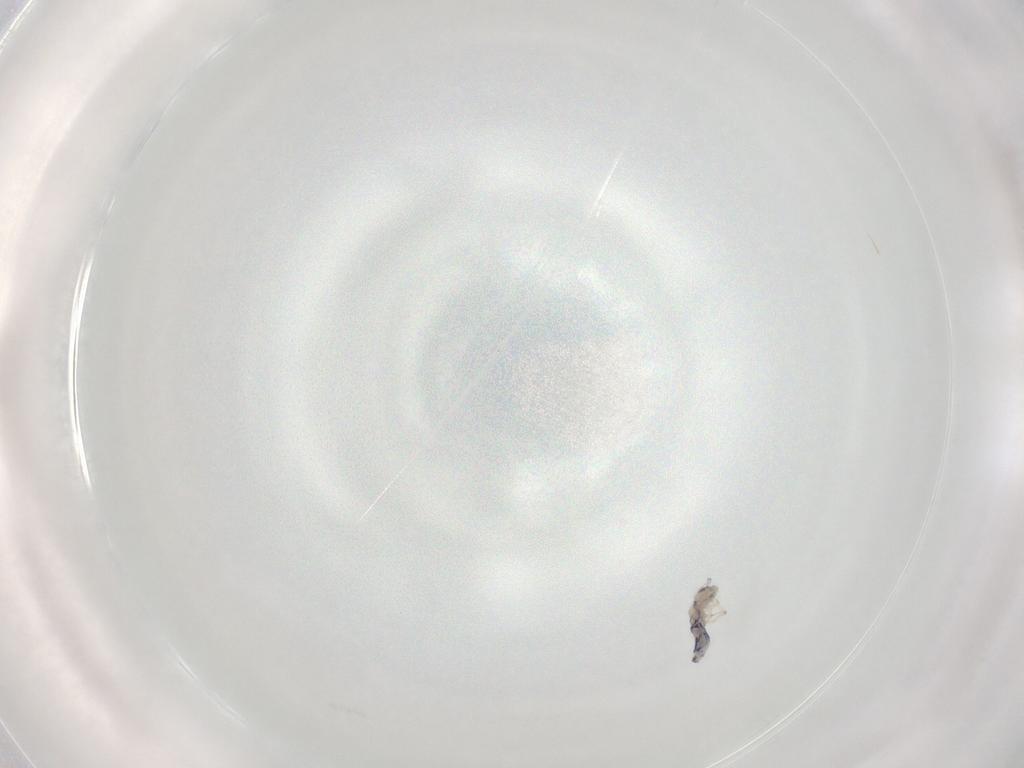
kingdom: Animalia
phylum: Arthropoda
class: Collembola
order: Entomobryomorpha
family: Entomobryidae
